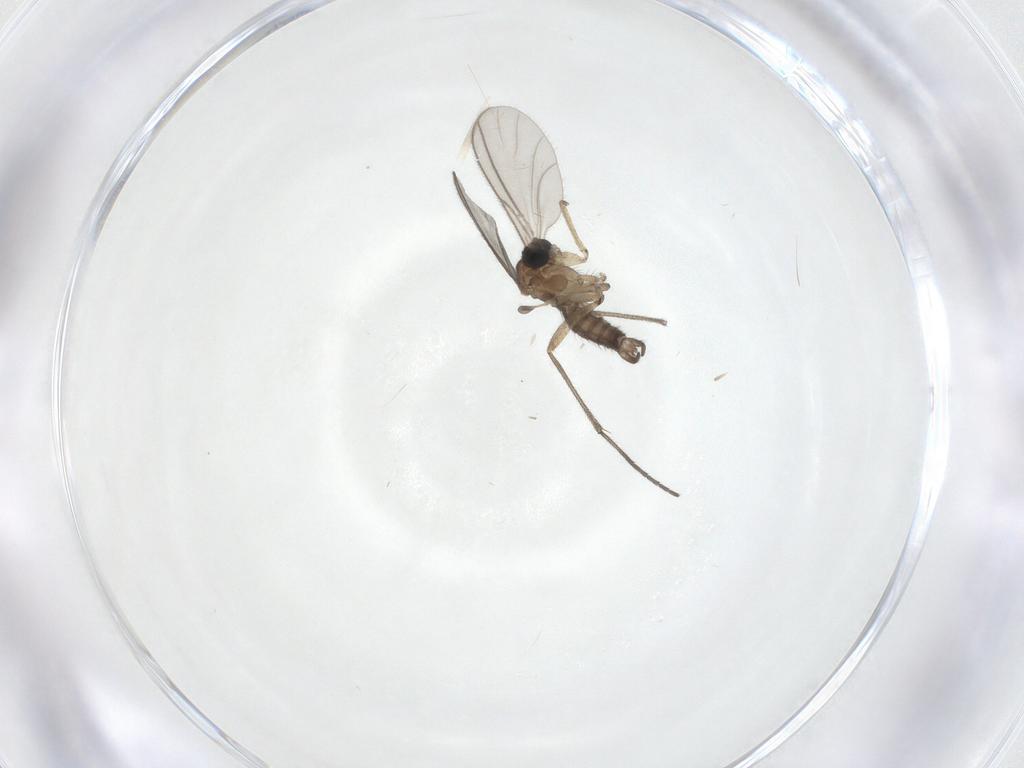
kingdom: Animalia
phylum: Arthropoda
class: Insecta
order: Diptera
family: Sciaridae
